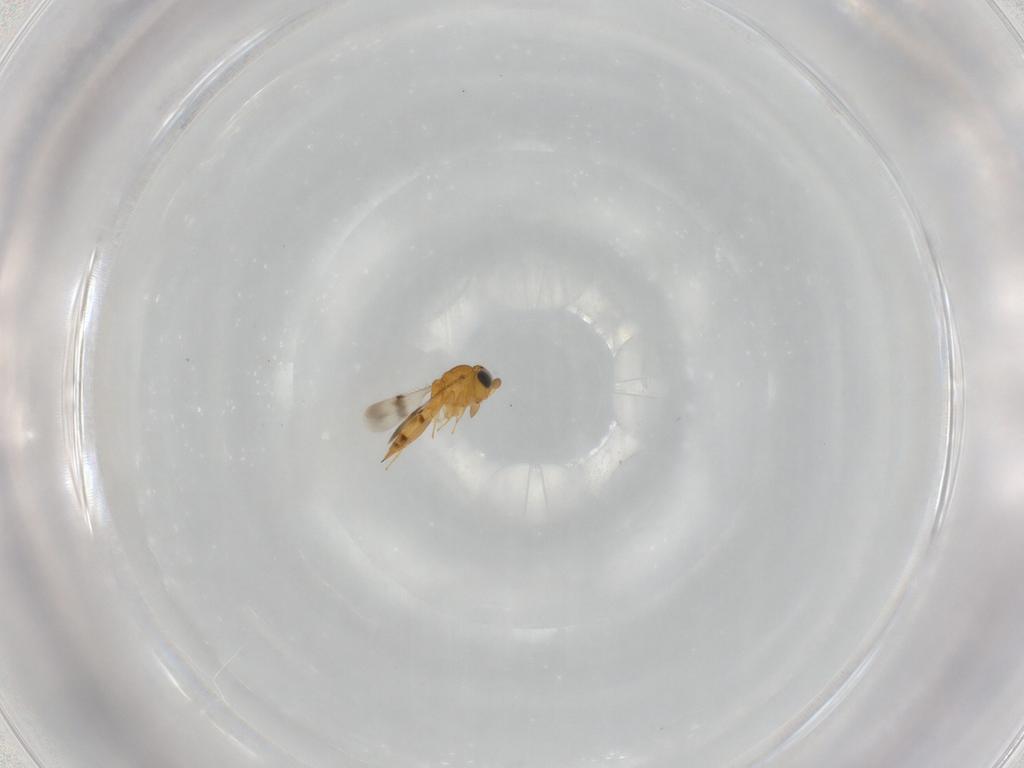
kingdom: Animalia
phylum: Arthropoda
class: Insecta
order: Hymenoptera
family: Scelionidae
